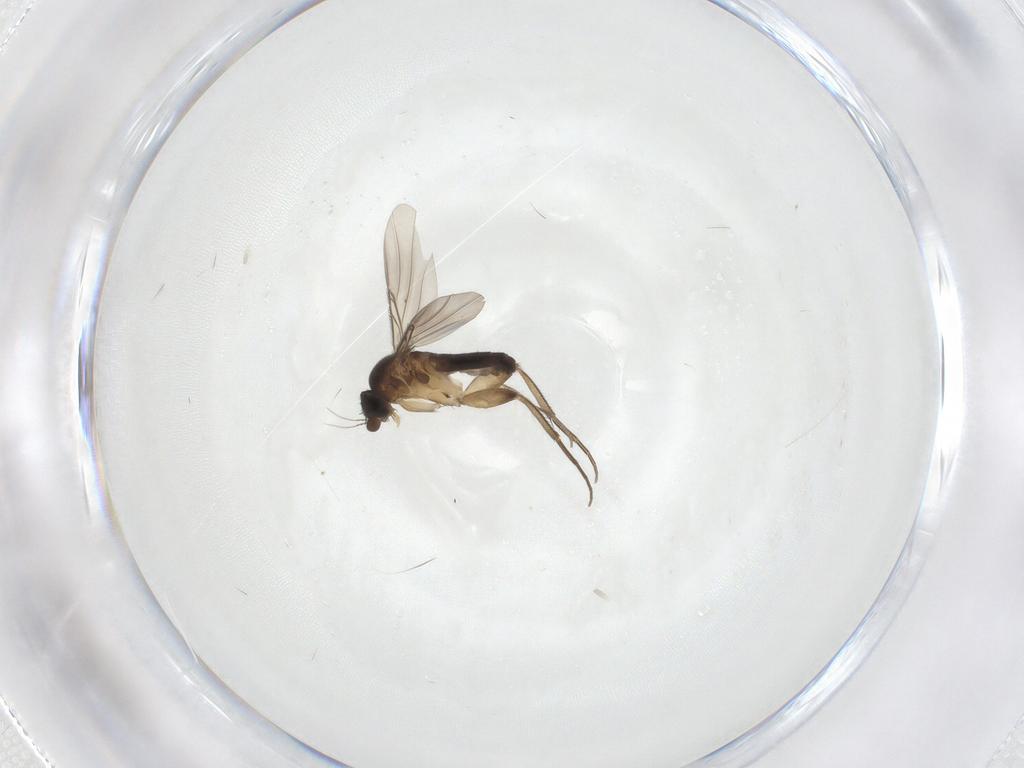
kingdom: Animalia
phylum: Arthropoda
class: Insecta
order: Diptera
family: Phoridae
